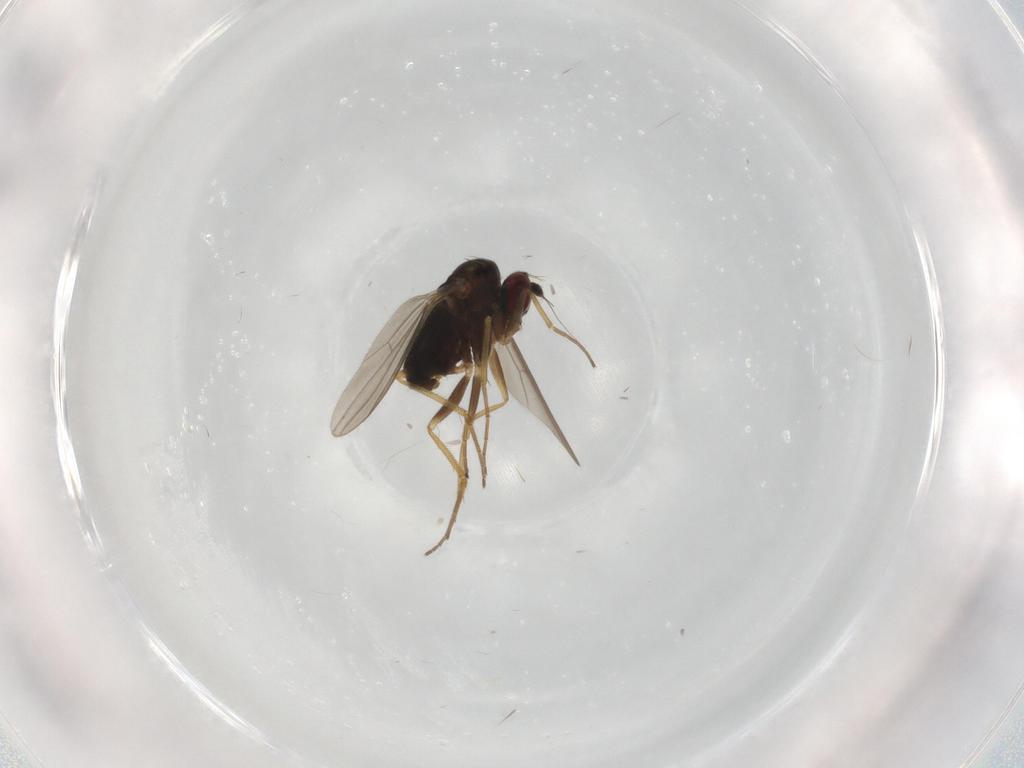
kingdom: Animalia
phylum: Arthropoda
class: Insecta
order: Diptera
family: Dolichopodidae
